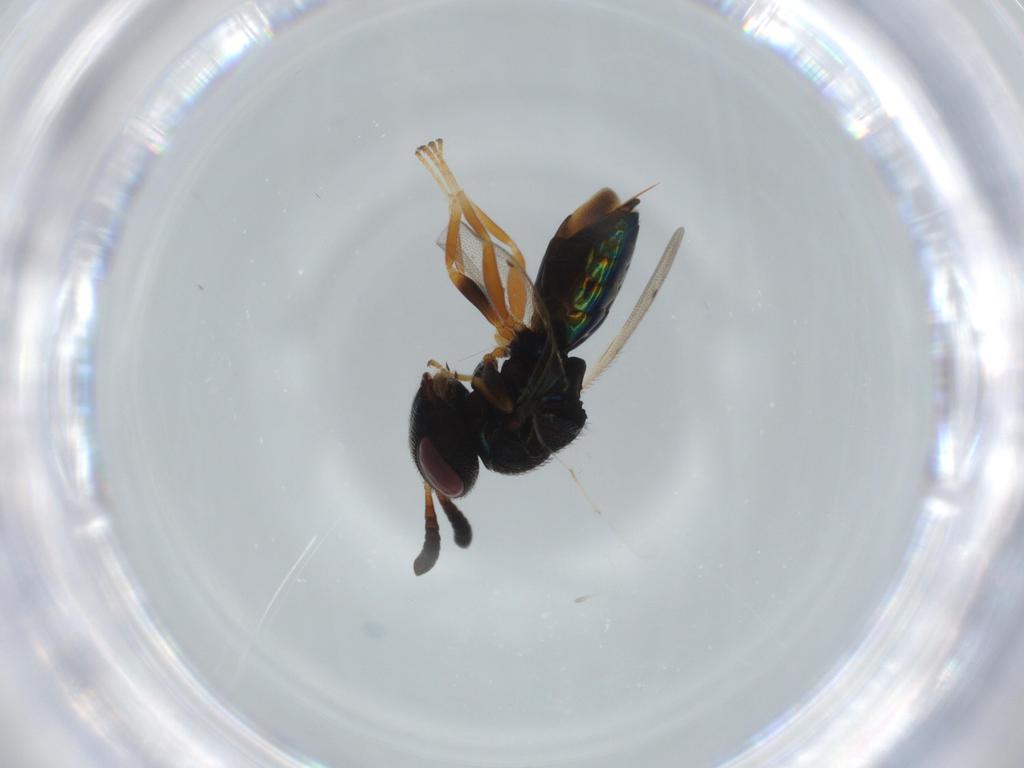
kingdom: Animalia
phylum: Arthropoda
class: Insecta
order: Hymenoptera
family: Agaonidae
